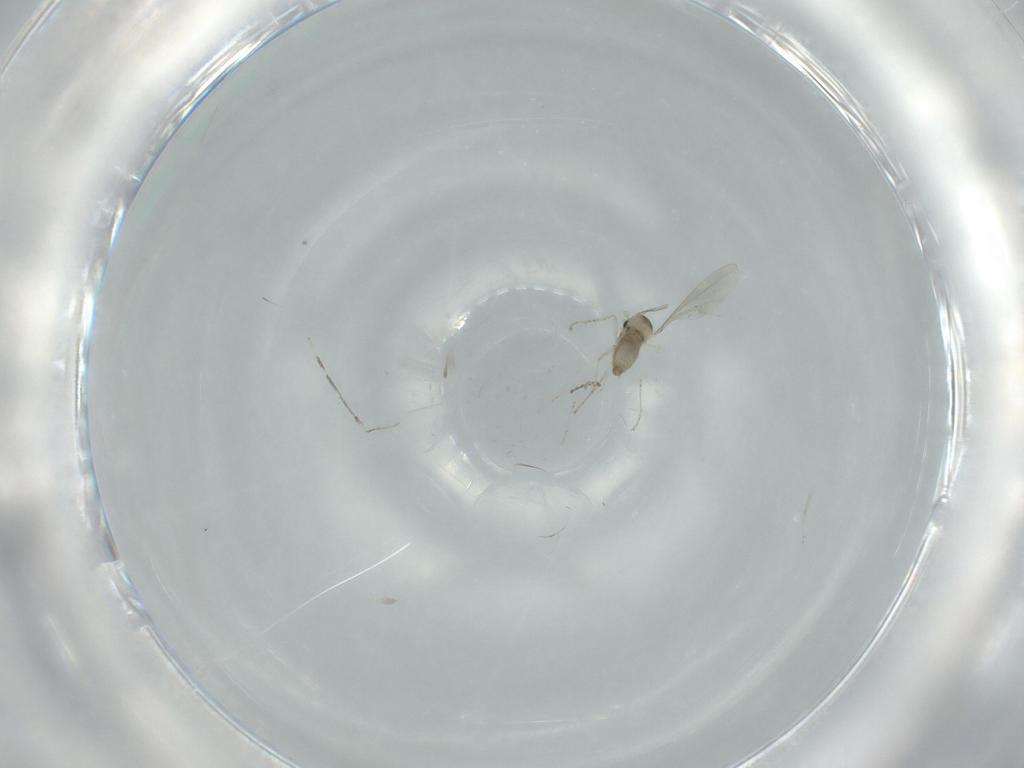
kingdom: Animalia
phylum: Arthropoda
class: Insecta
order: Diptera
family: Cecidomyiidae
